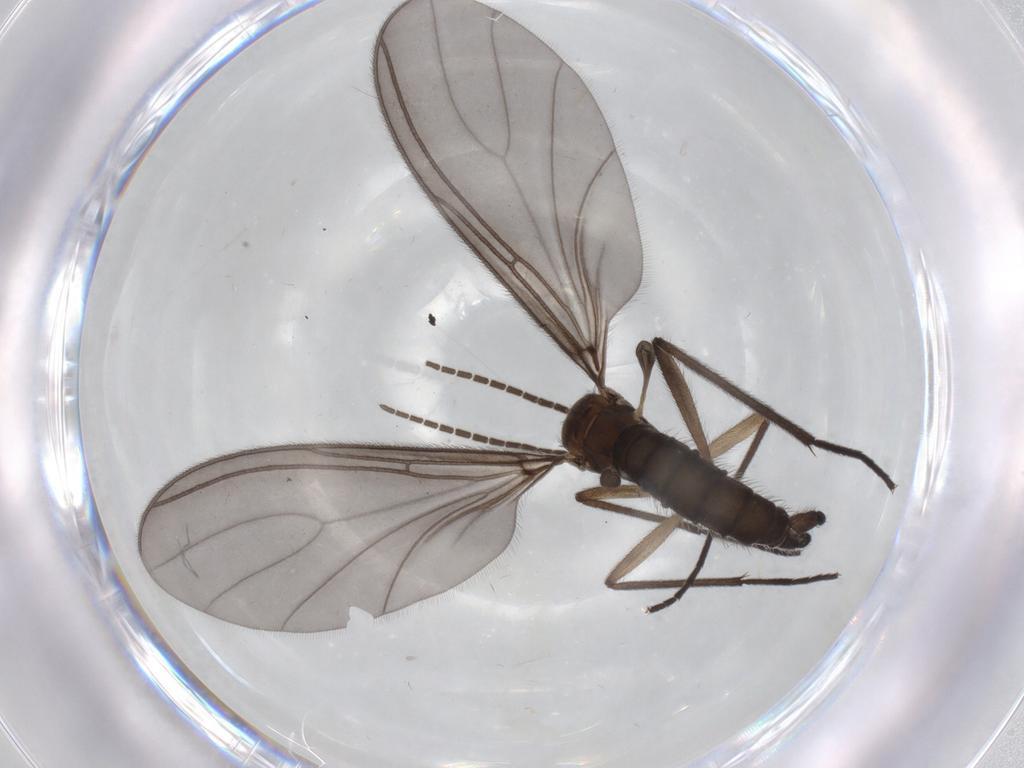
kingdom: Animalia
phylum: Arthropoda
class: Insecta
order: Diptera
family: Sciaridae
